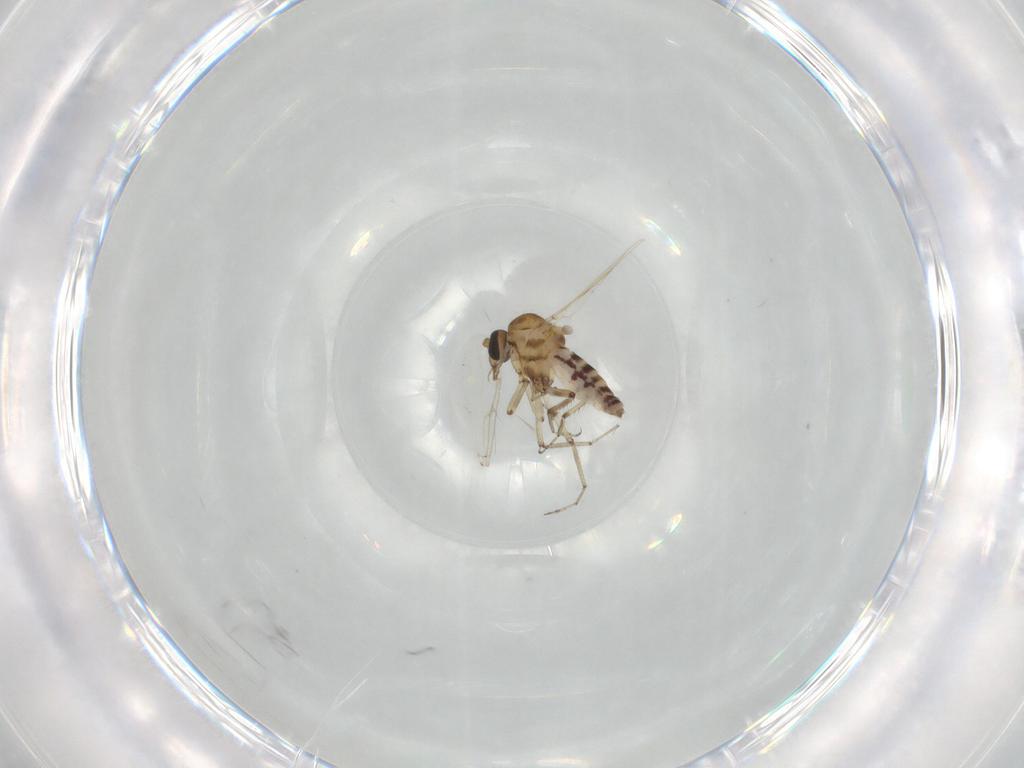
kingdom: Animalia
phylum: Arthropoda
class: Insecta
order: Diptera
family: Ceratopogonidae
